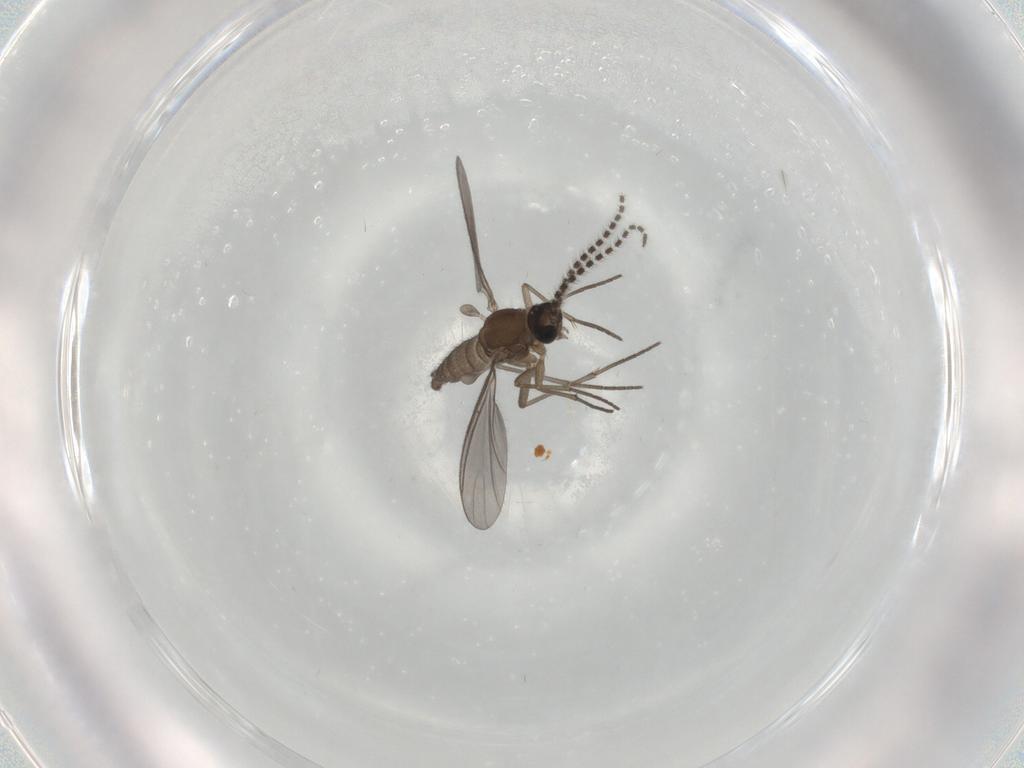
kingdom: Animalia
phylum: Arthropoda
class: Insecta
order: Diptera
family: Sciaridae
